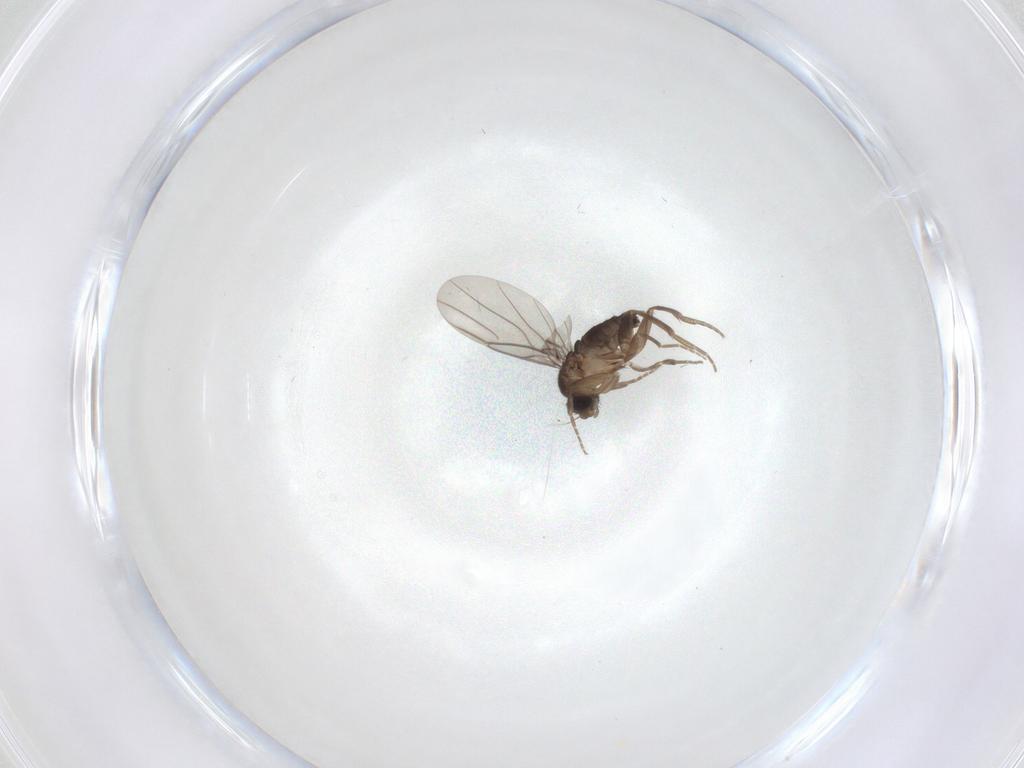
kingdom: Animalia
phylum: Arthropoda
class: Insecta
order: Diptera
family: Phoridae
